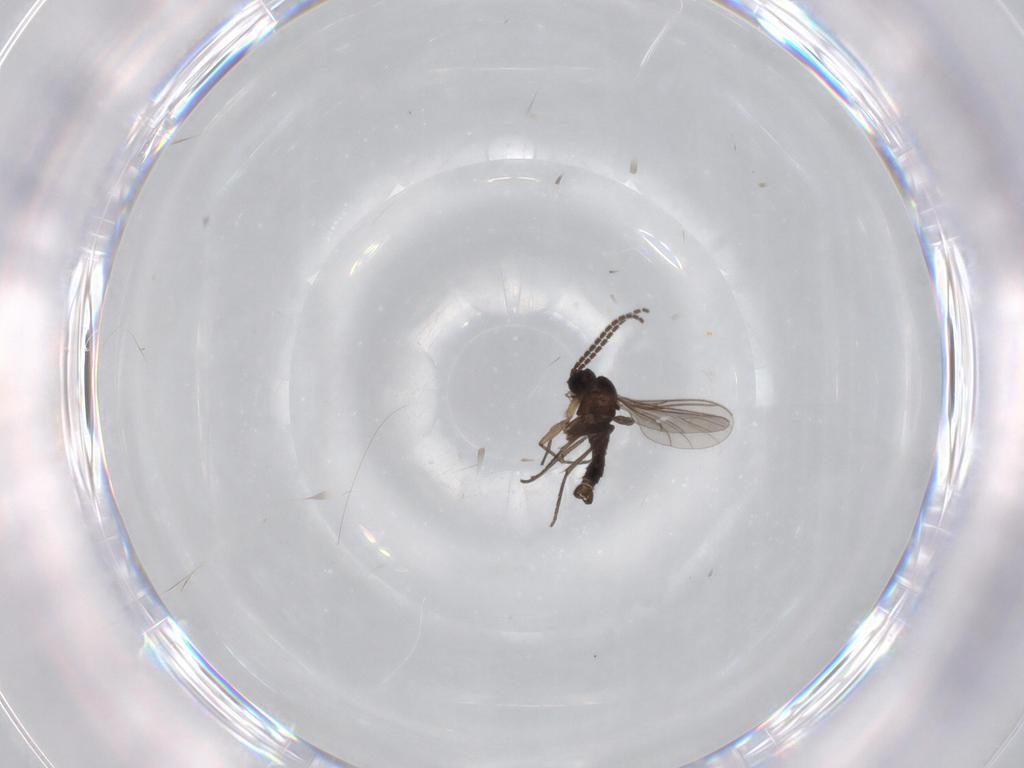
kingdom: Animalia
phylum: Arthropoda
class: Insecta
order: Diptera
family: Sciaridae
